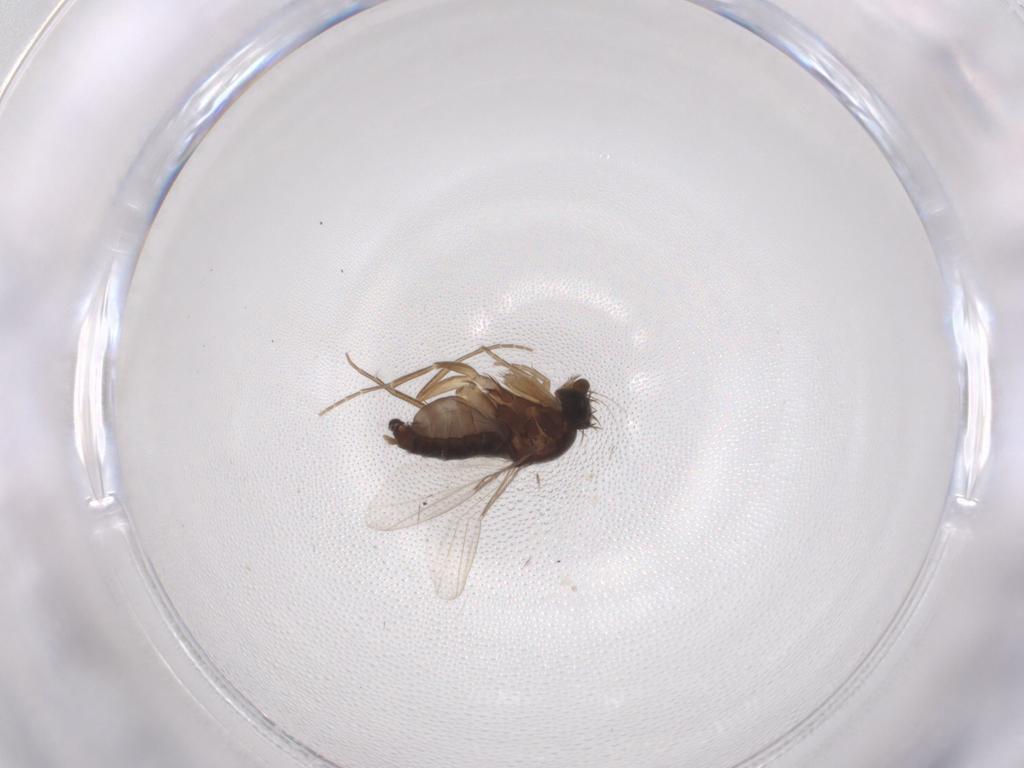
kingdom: Animalia
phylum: Arthropoda
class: Insecta
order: Diptera
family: Phoridae
